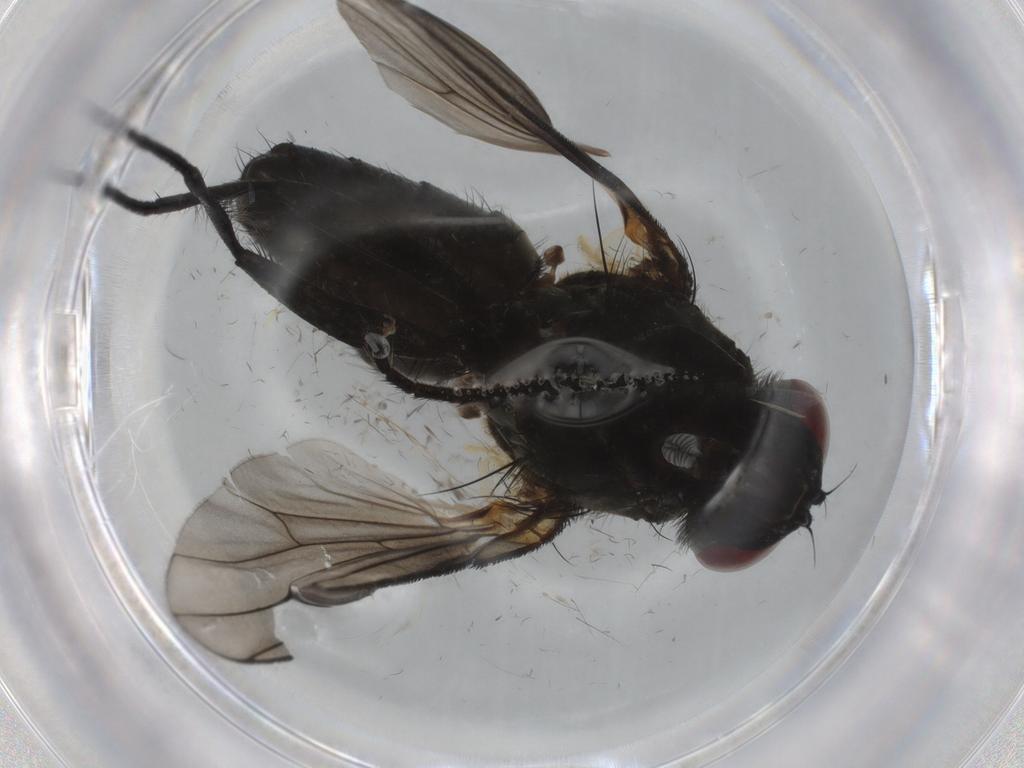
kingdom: Animalia
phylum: Arthropoda
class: Insecta
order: Diptera
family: Muscidae
